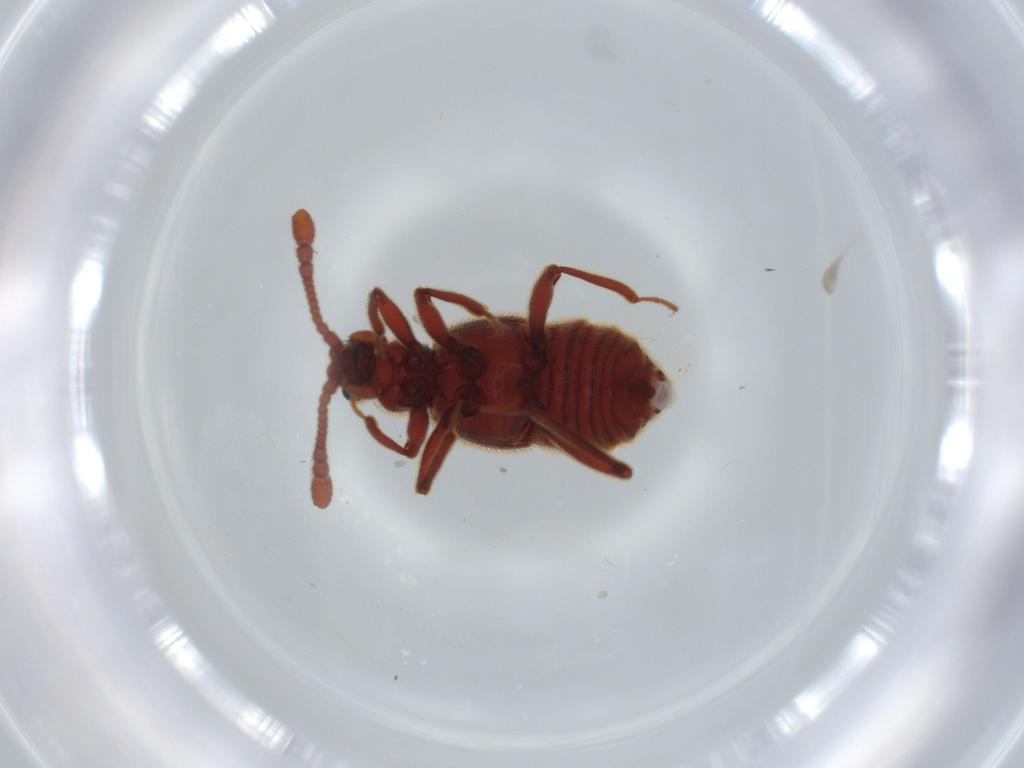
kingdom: Animalia
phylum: Arthropoda
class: Insecta
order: Coleoptera
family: Staphylinidae
